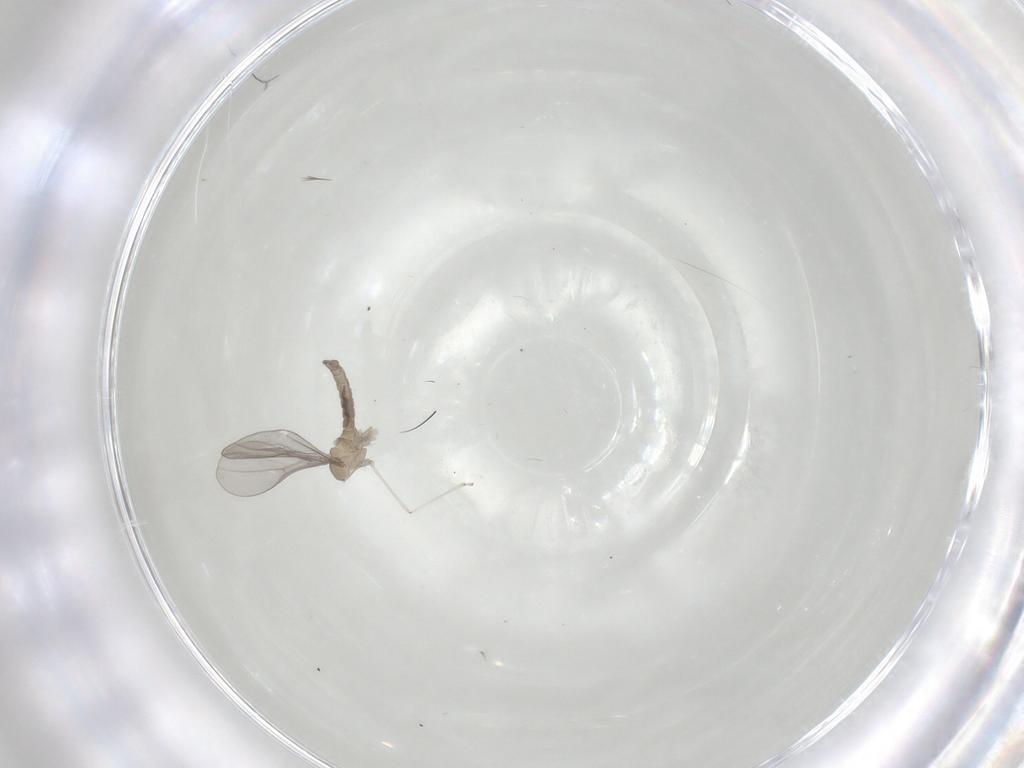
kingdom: Animalia
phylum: Arthropoda
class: Insecta
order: Diptera
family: Cecidomyiidae
